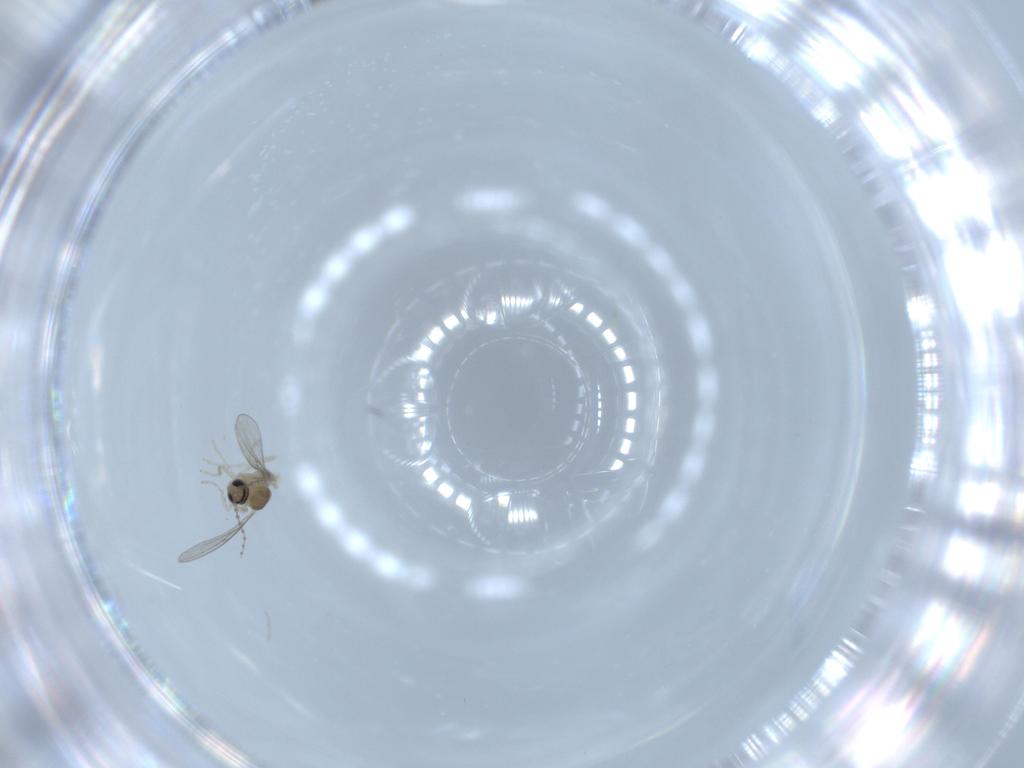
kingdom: Animalia
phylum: Arthropoda
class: Insecta
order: Diptera
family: Cecidomyiidae
